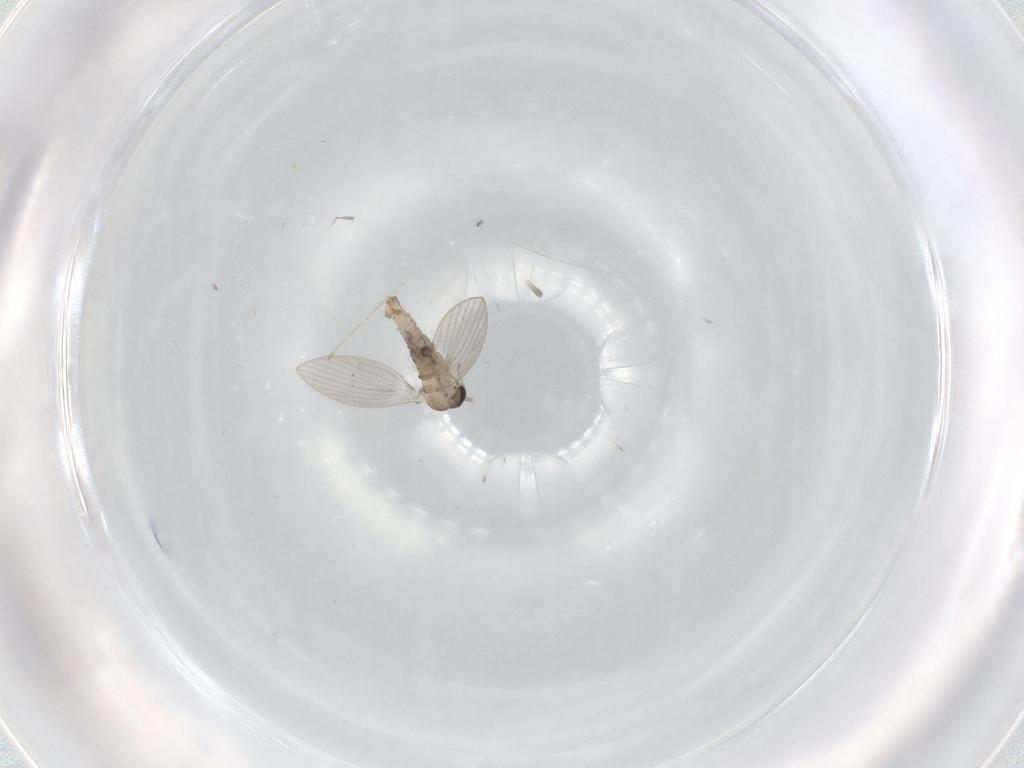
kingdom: Animalia
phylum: Arthropoda
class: Insecta
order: Diptera
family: Psychodidae
